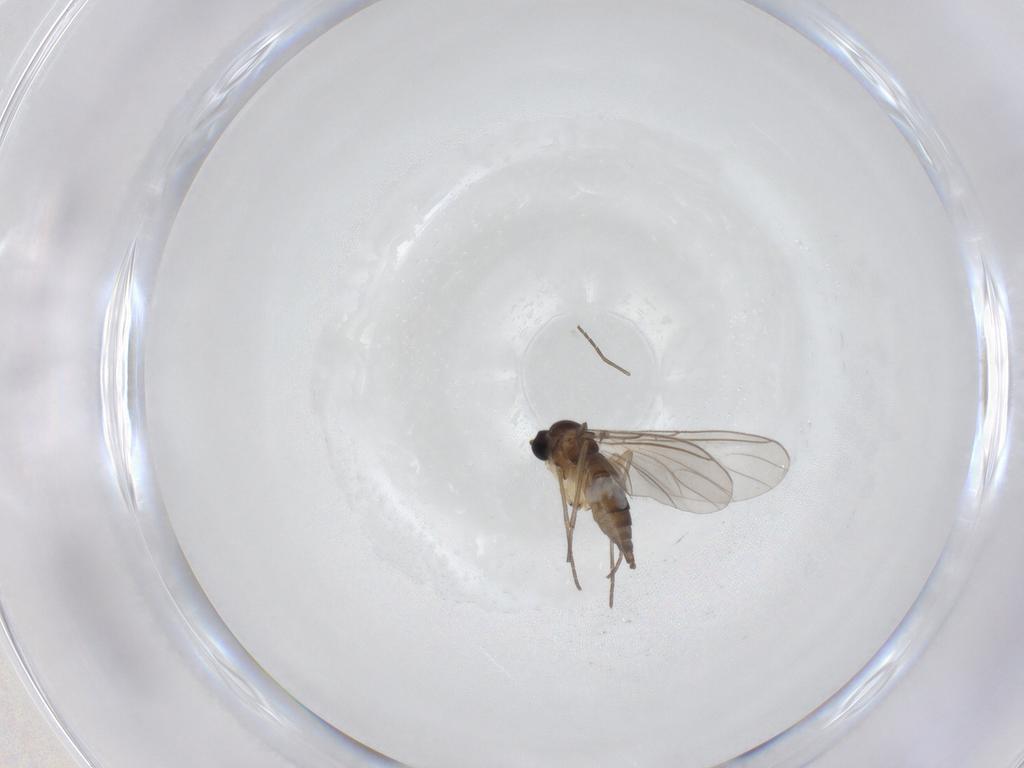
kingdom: Animalia
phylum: Arthropoda
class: Insecta
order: Diptera
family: Sciaridae
